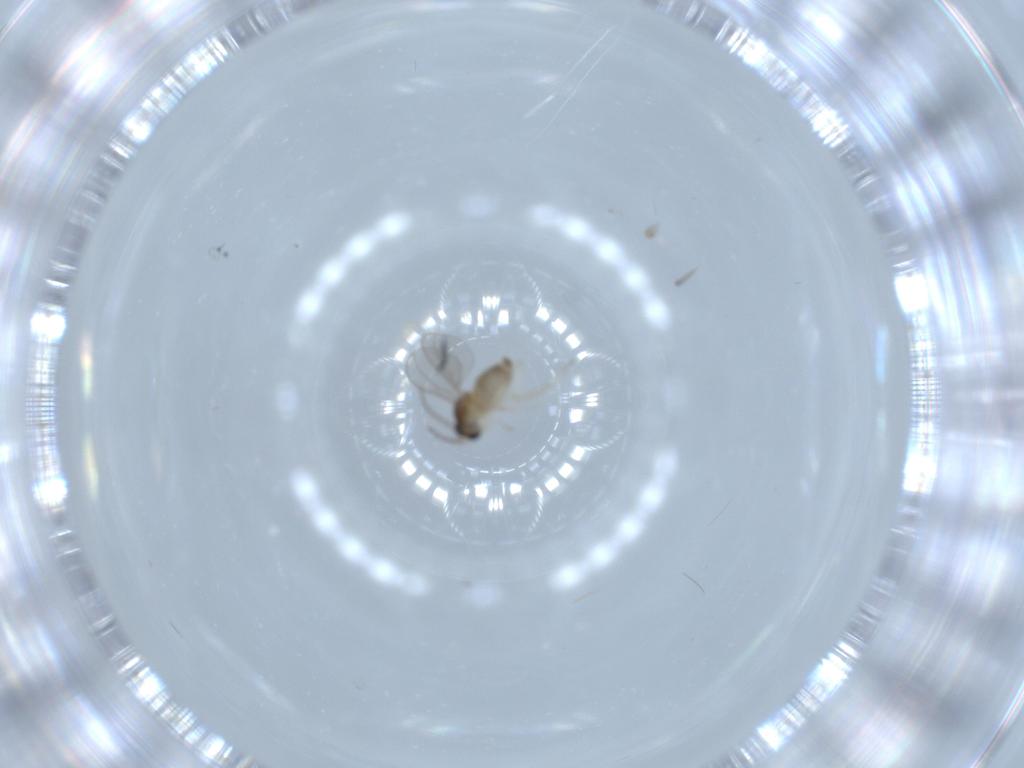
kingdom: Animalia
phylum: Arthropoda
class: Insecta
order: Diptera
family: Cecidomyiidae
